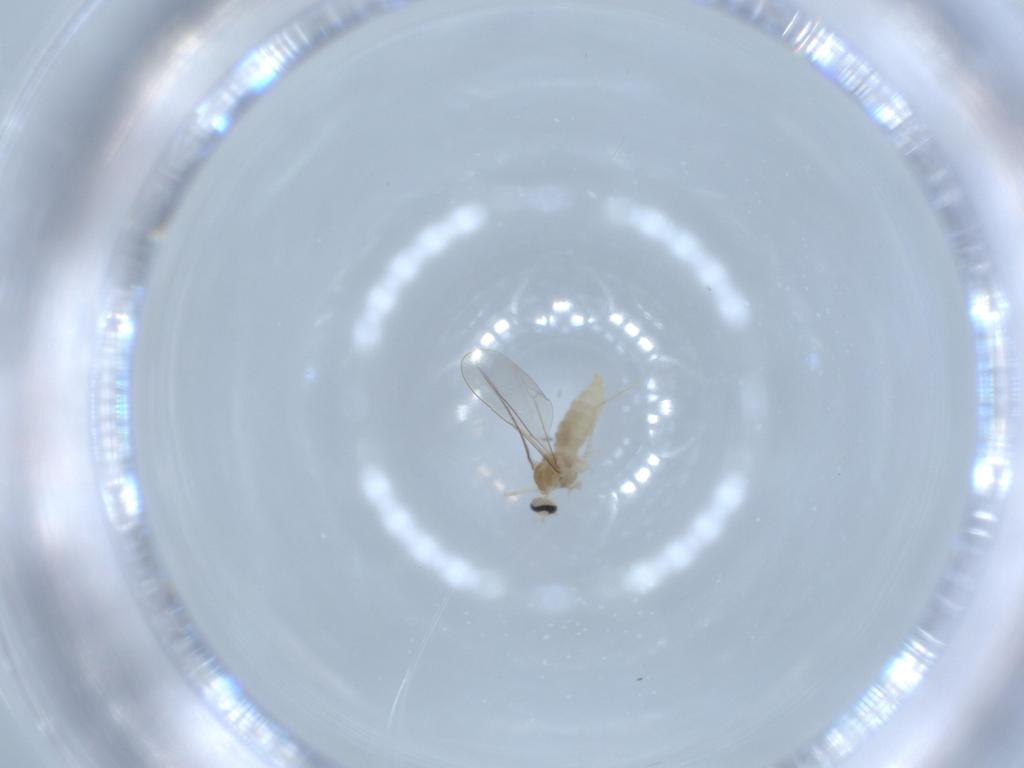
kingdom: Animalia
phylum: Arthropoda
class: Insecta
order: Diptera
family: Cecidomyiidae
